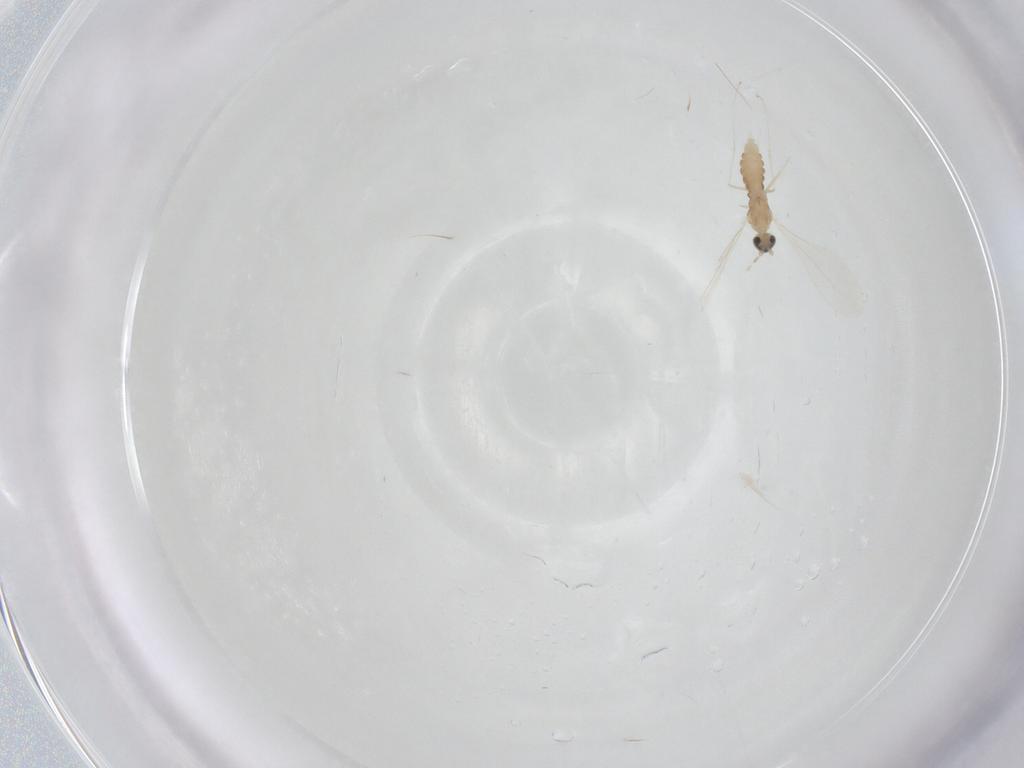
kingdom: Animalia
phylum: Arthropoda
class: Insecta
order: Diptera
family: Cecidomyiidae
